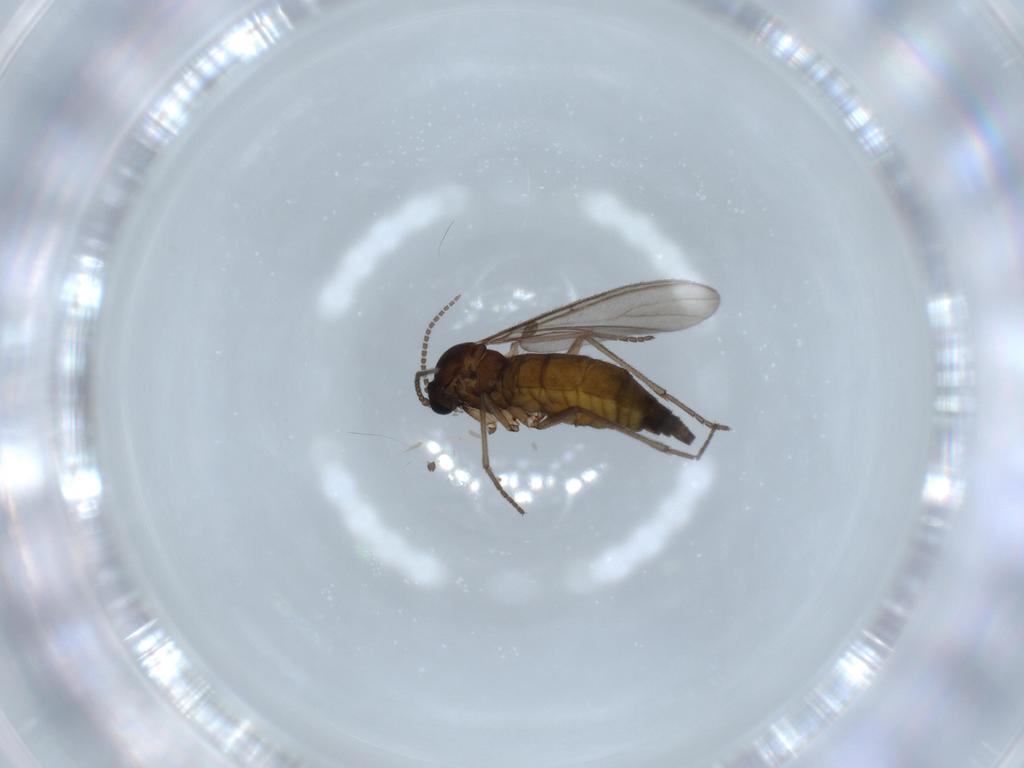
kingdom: Animalia
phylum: Arthropoda
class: Insecta
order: Diptera
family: Sciaridae
